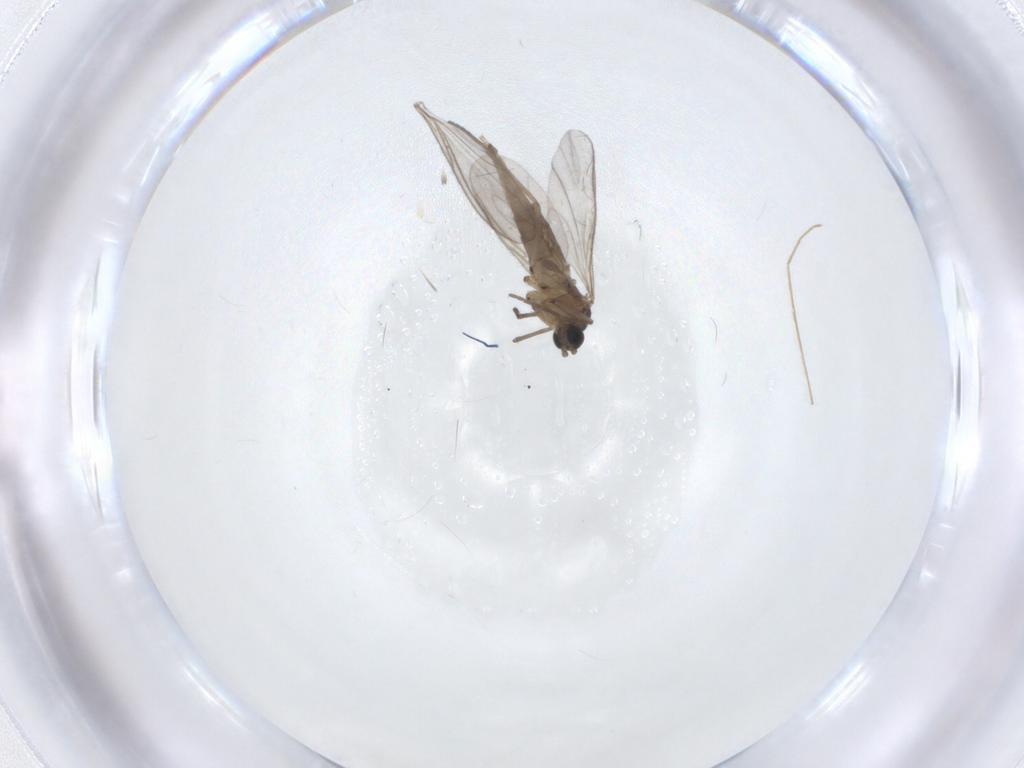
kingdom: Animalia
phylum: Arthropoda
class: Insecta
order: Diptera
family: Sciaridae
